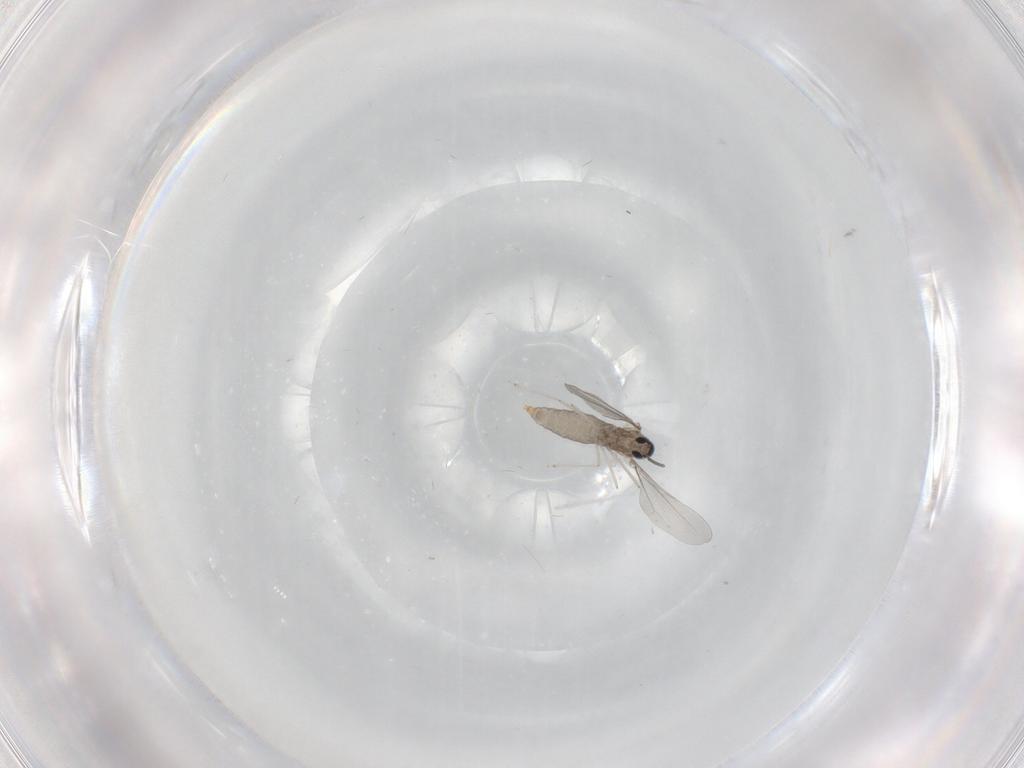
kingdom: Animalia
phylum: Arthropoda
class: Insecta
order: Diptera
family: Cecidomyiidae
